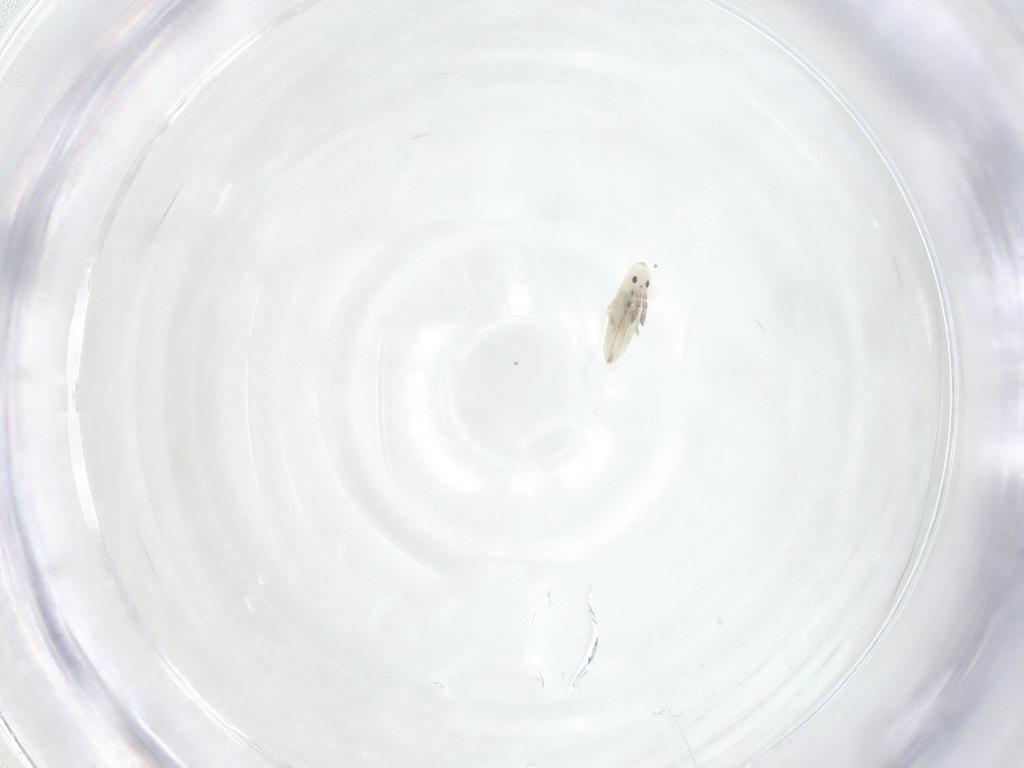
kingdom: Animalia
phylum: Arthropoda
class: Collembola
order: Entomobryomorpha
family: Entomobryidae
